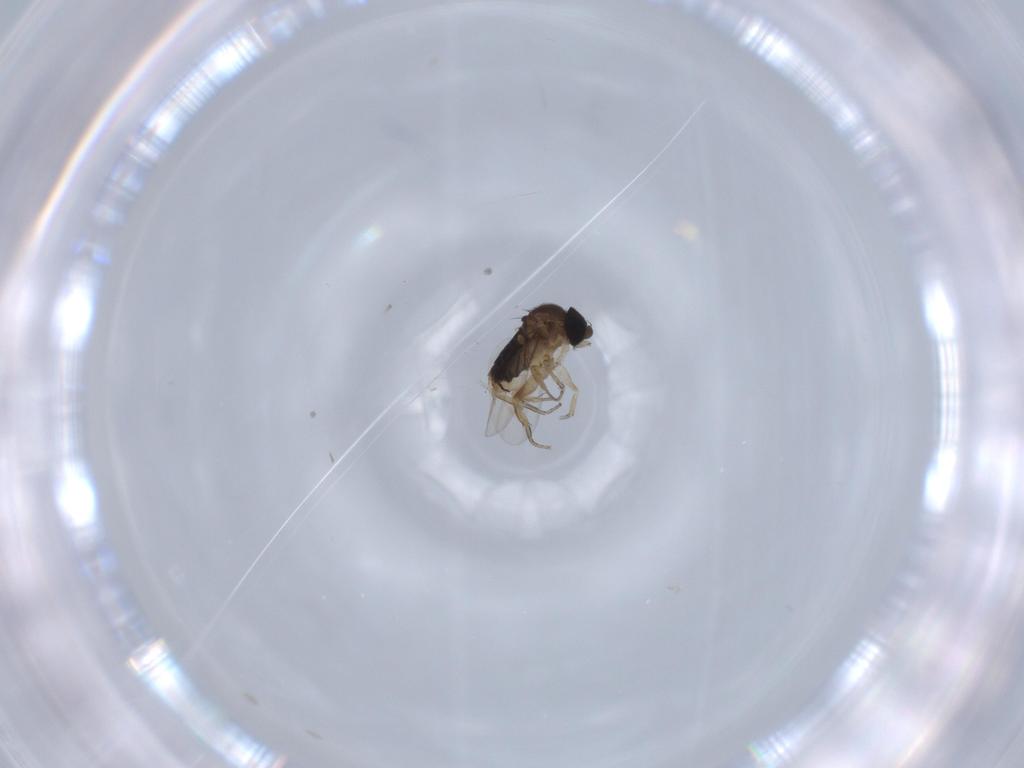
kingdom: Animalia
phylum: Arthropoda
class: Insecta
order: Diptera
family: Phoridae
